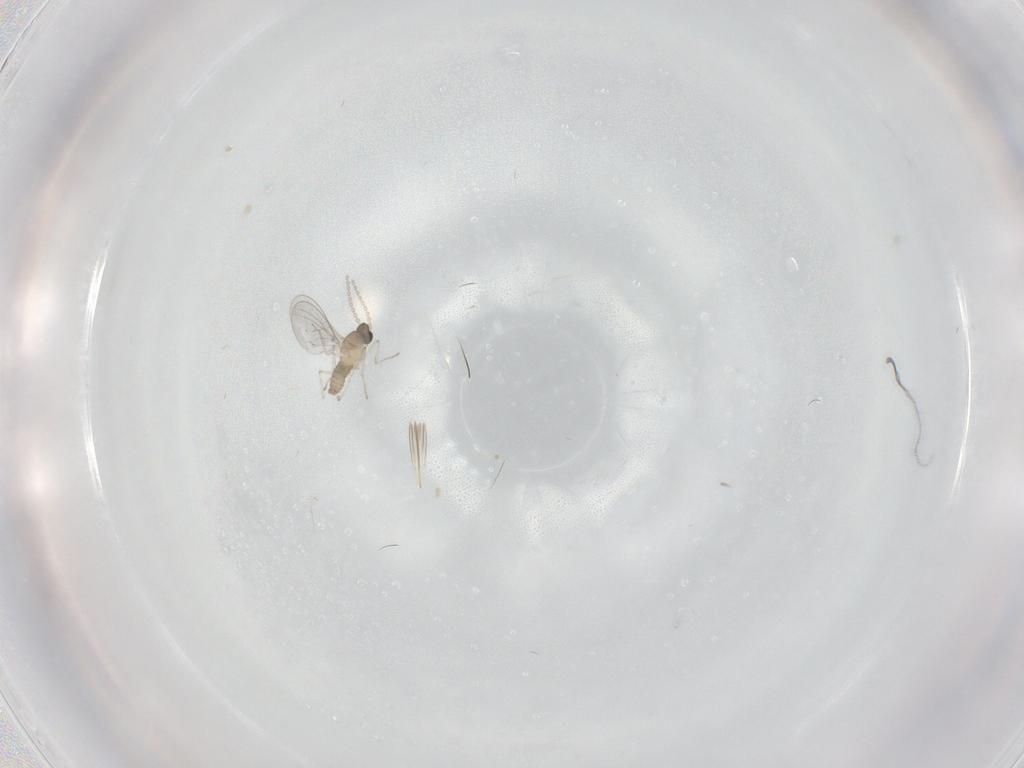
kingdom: Animalia
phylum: Arthropoda
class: Insecta
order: Diptera
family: Cecidomyiidae
